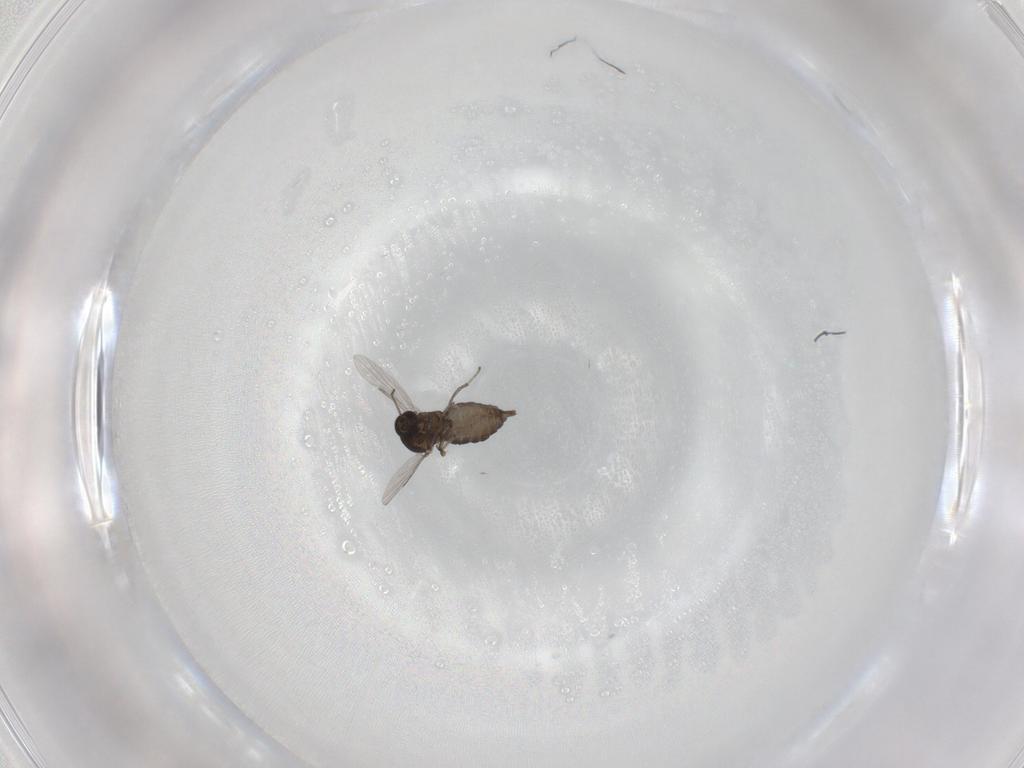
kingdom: Animalia
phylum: Arthropoda
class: Insecta
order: Diptera
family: Ceratopogonidae
